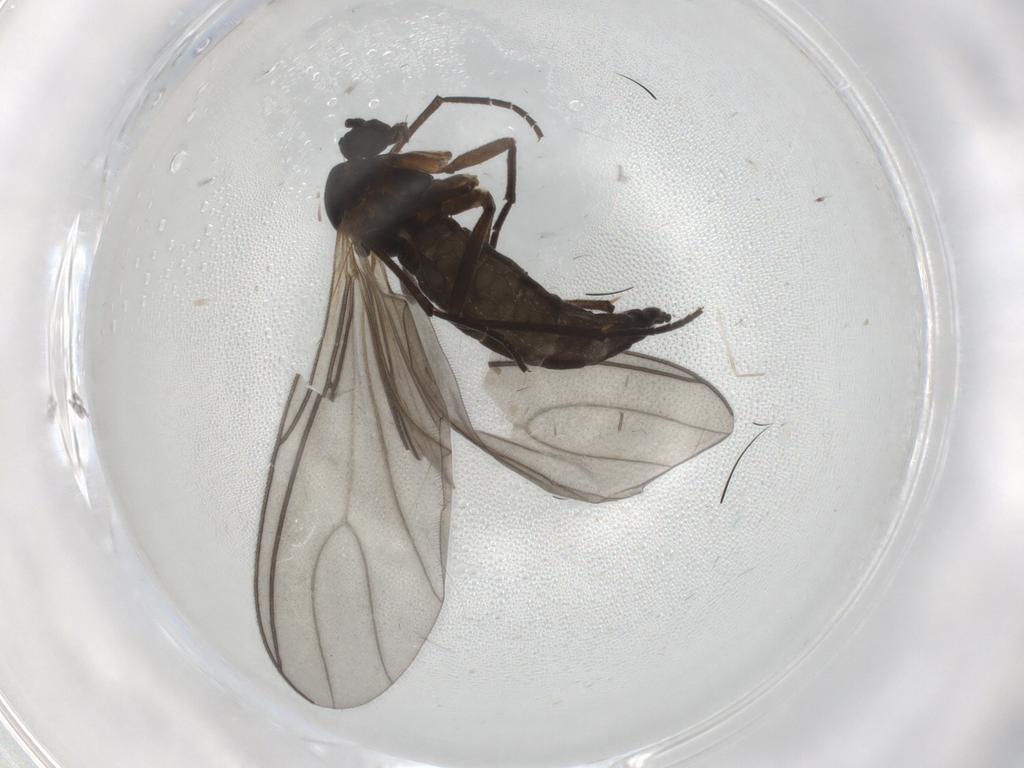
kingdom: Animalia
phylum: Arthropoda
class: Insecta
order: Diptera
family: Sciaridae
